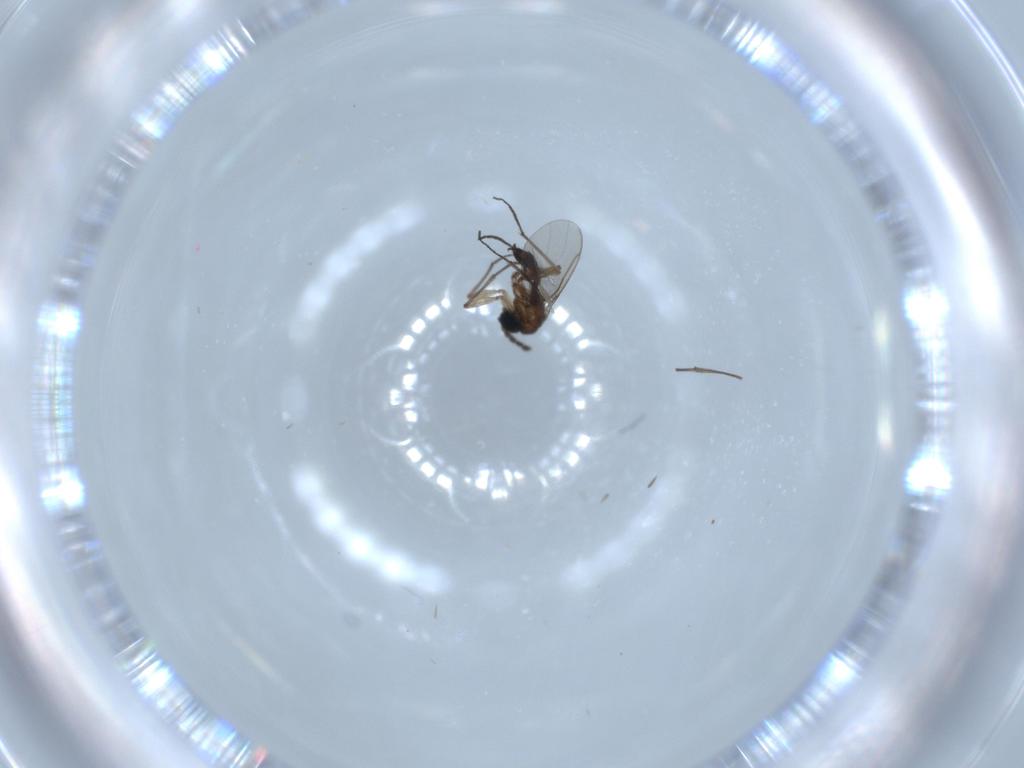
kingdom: Animalia
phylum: Arthropoda
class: Insecta
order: Diptera
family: Sciaridae
